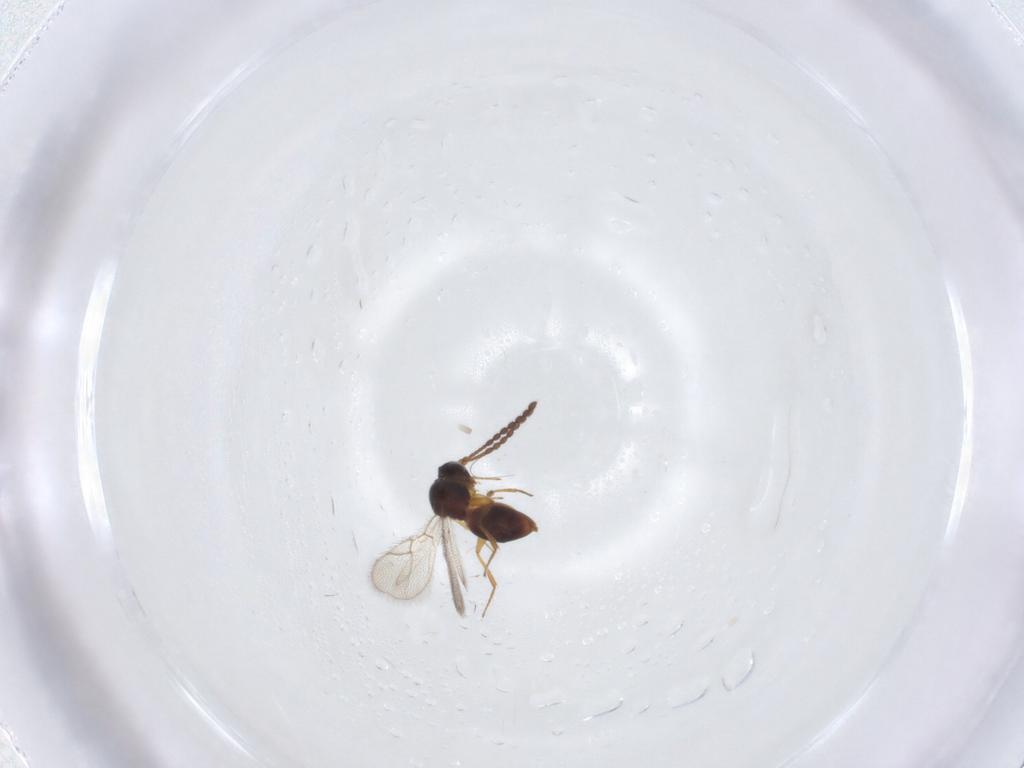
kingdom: Animalia
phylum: Arthropoda
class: Insecta
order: Hymenoptera
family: Figitidae
